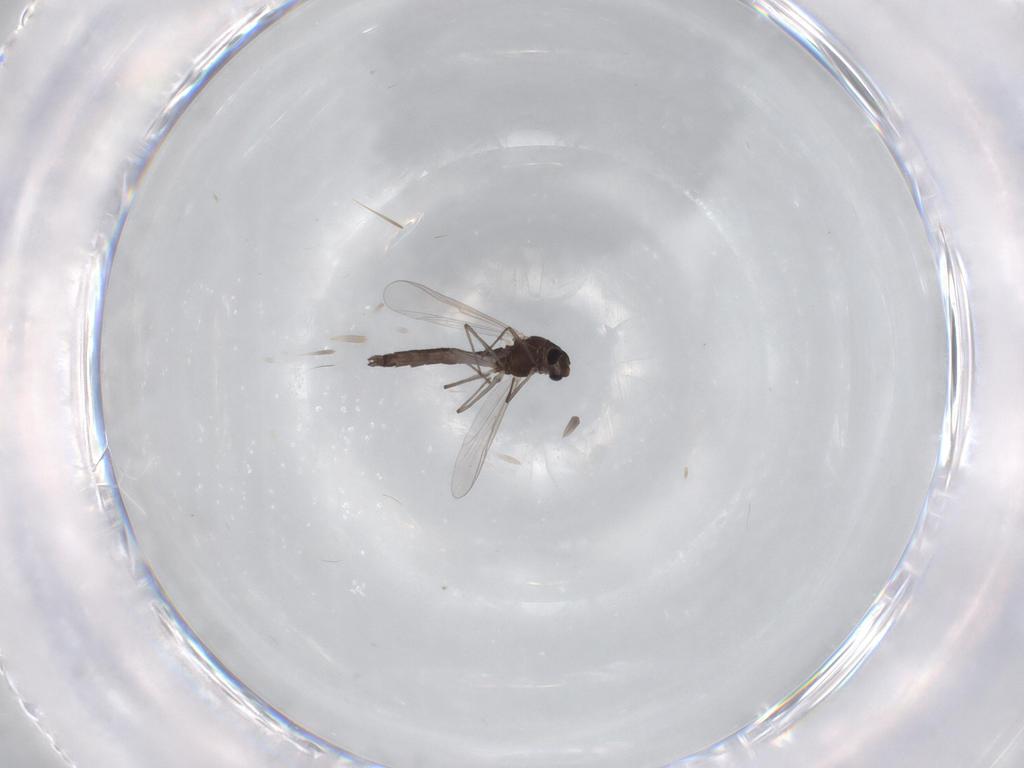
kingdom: Animalia
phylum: Arthropoda
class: Insecta
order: Diptera
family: Chironomidae
